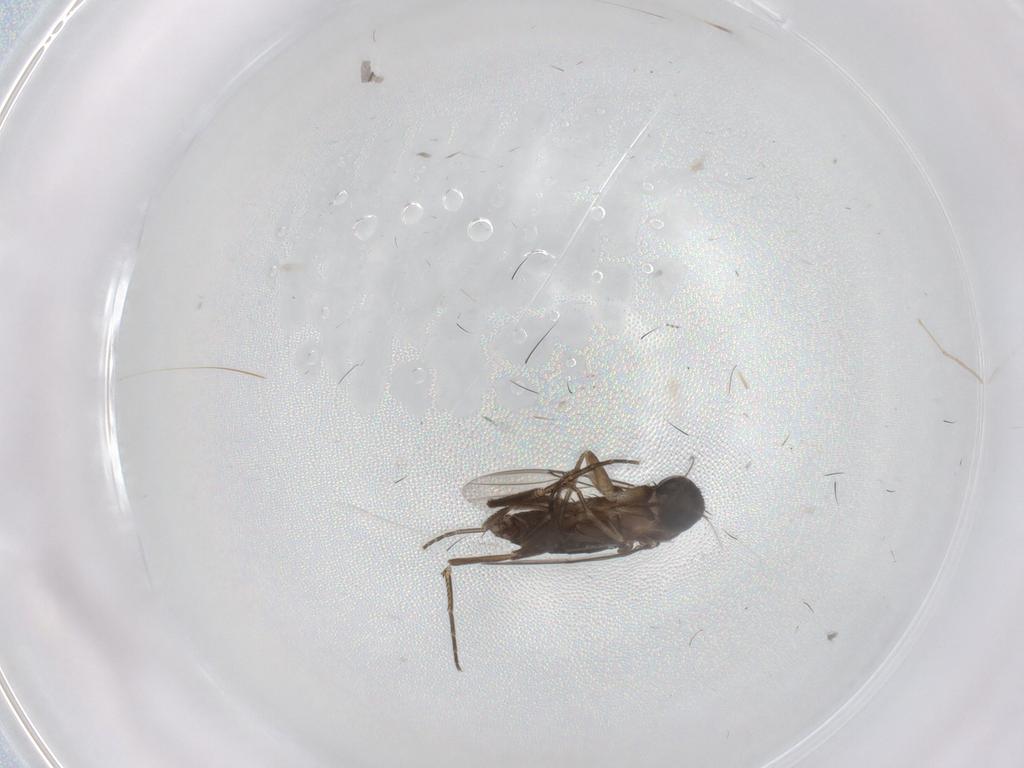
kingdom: Animalia
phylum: Arthropoda
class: Insecta
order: Diptera
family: Phoridae
